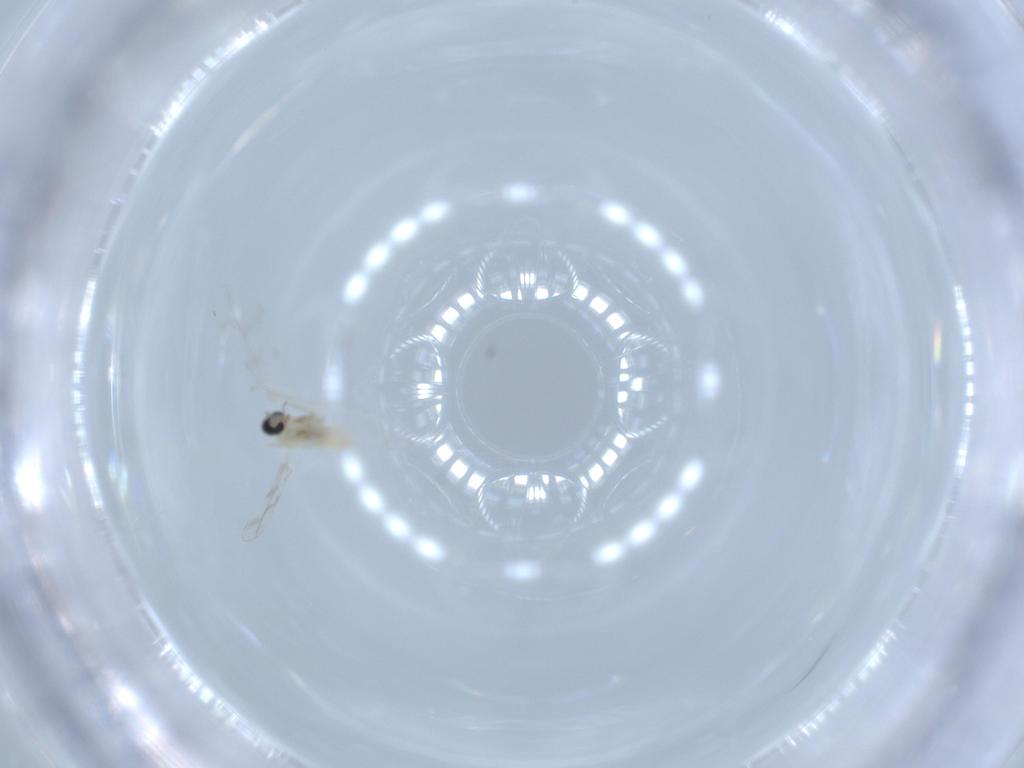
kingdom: Animalia
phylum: Arthropoda
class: Insecta
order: Diptera
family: Cecidomyiidae
